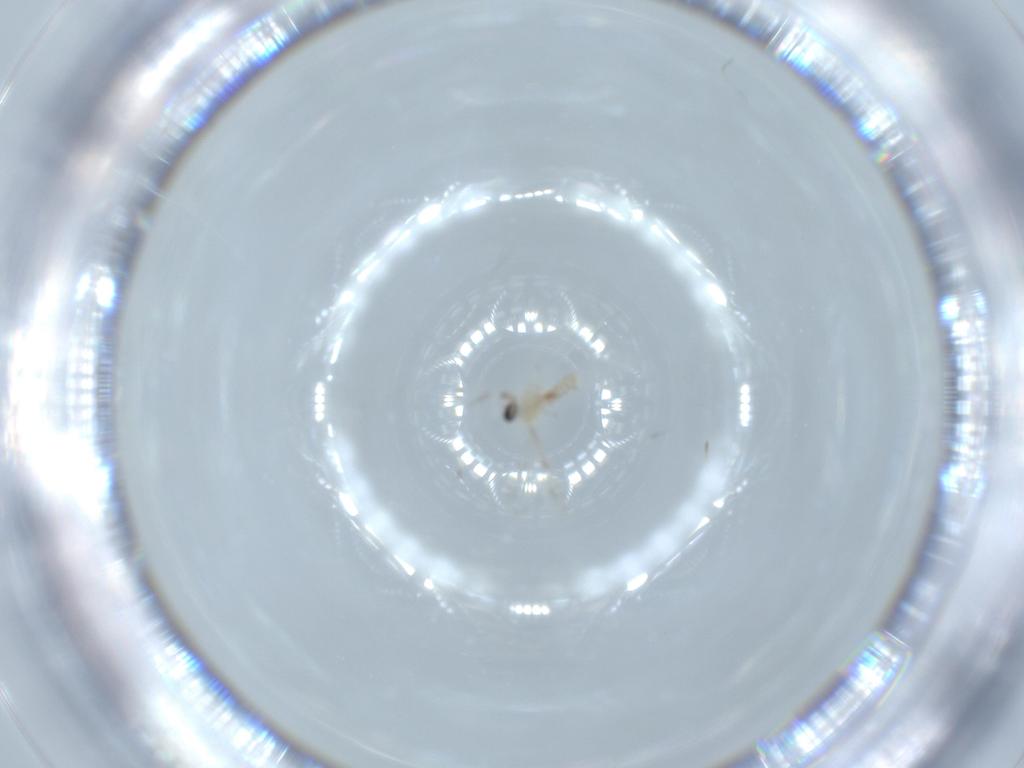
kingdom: Animalia
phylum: Arthropoda
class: Insecta
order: Diptera
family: Cecidomyiidae
